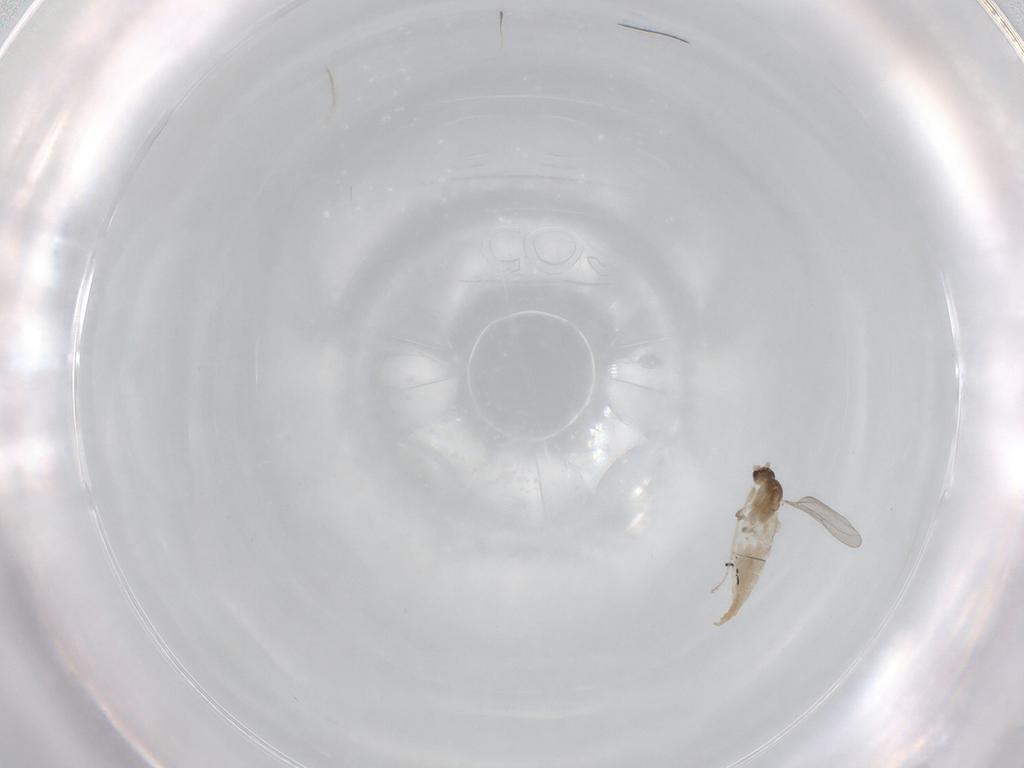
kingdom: Animalia
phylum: Arthropoda
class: Insecta
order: Diptera
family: Cecidomyiidae
